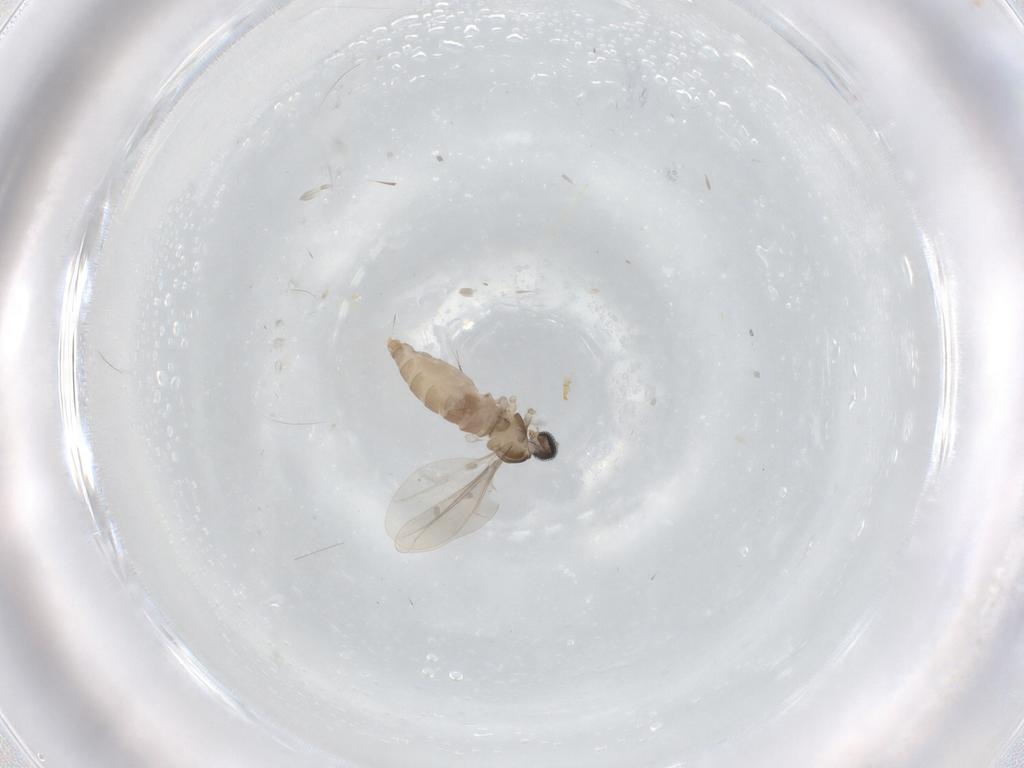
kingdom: Animalia
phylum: Arthropoda
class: Insecta
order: Diptera
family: Cecidomyiidae
